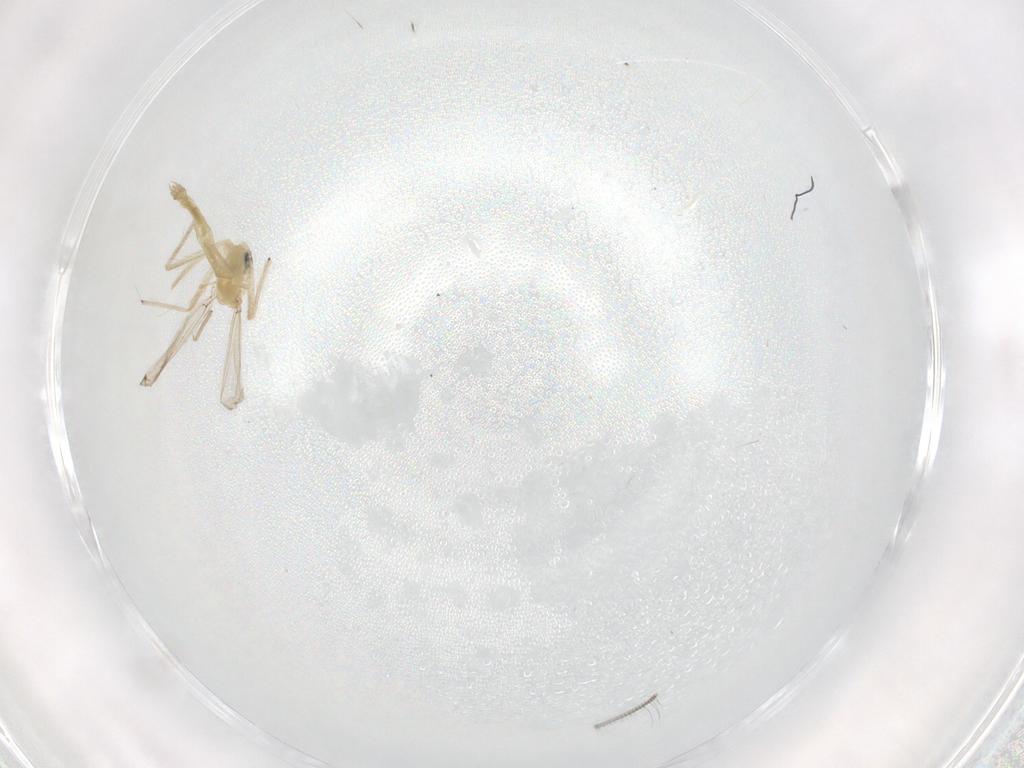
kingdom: Animalia
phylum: Arthropoda
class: Insecta
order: Diptera
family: Chironomidae
